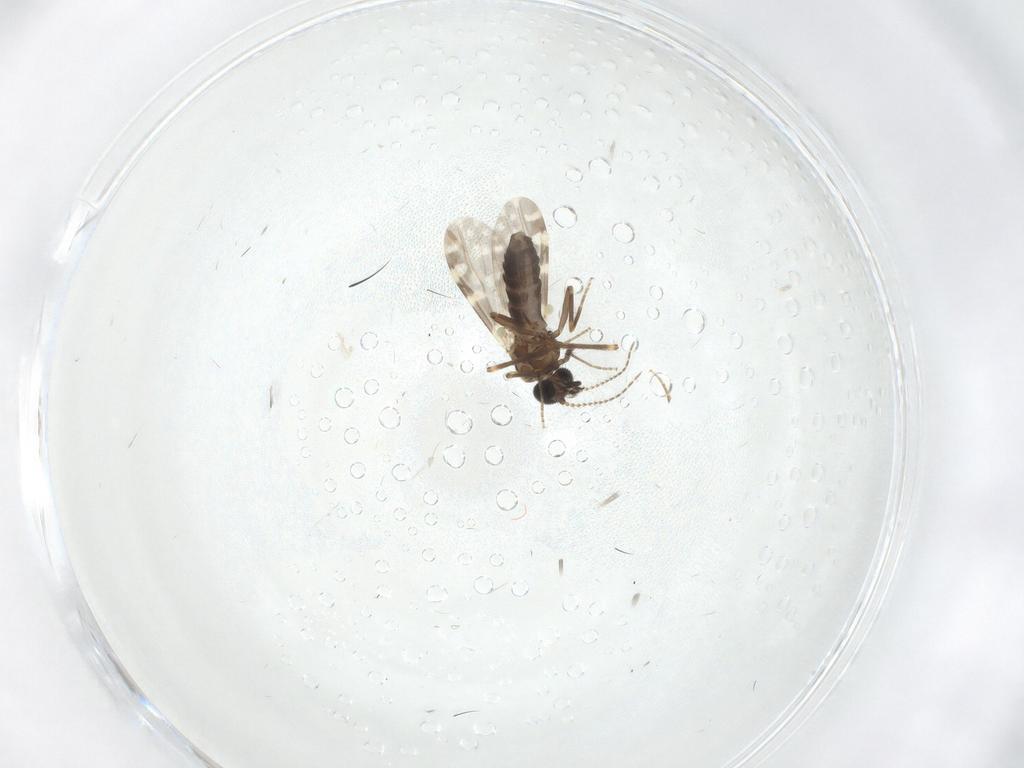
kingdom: Animalia
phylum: Arthropoda
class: Insecta
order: Diptera
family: Ceratopogonidae
